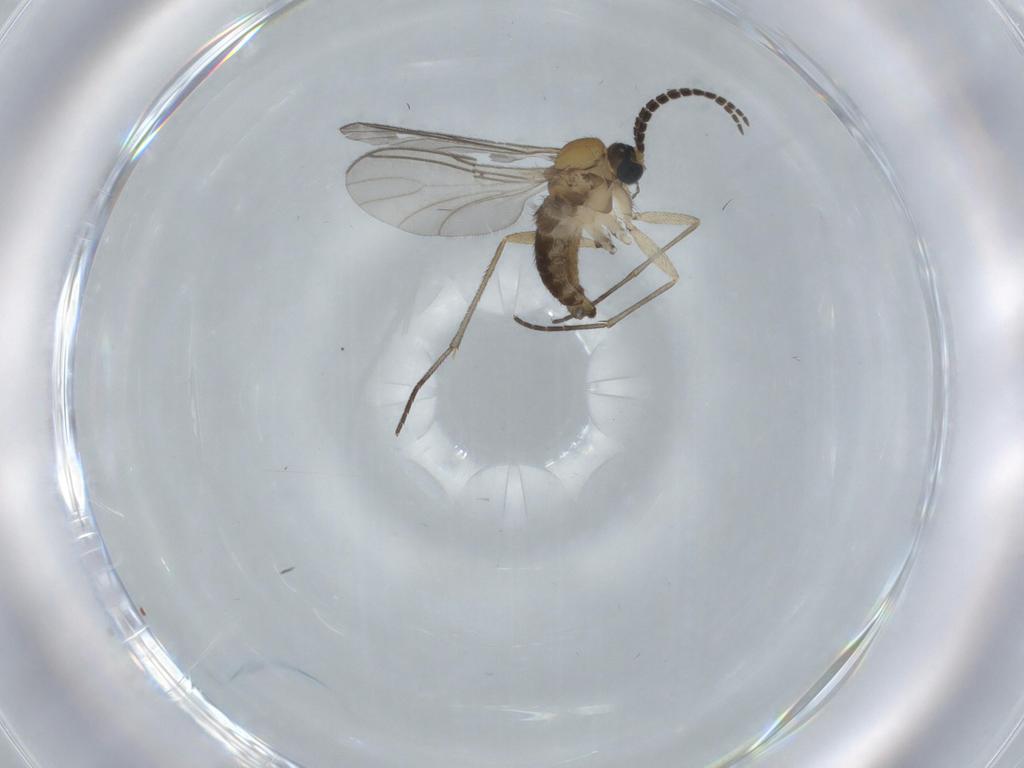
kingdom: Animalia
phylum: Arthropoda
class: Insecta
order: Diptera
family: Sciaridae
